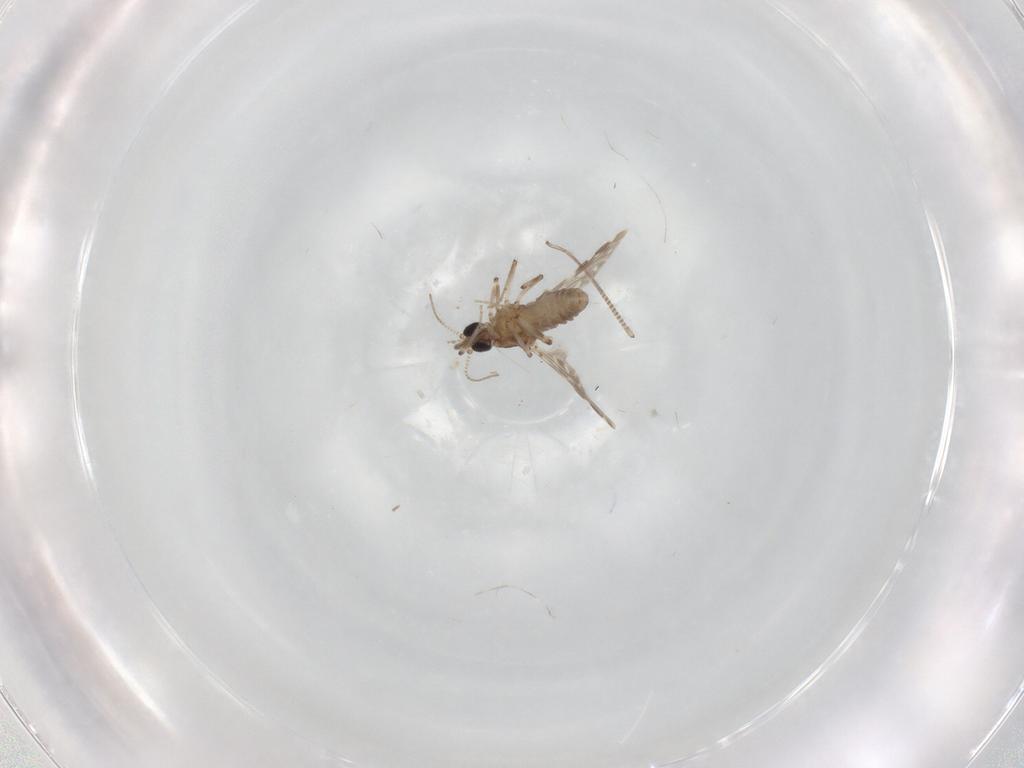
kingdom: Animalia
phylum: Arthropoda
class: Insecta
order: Diptera
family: Ceratopogonidae
